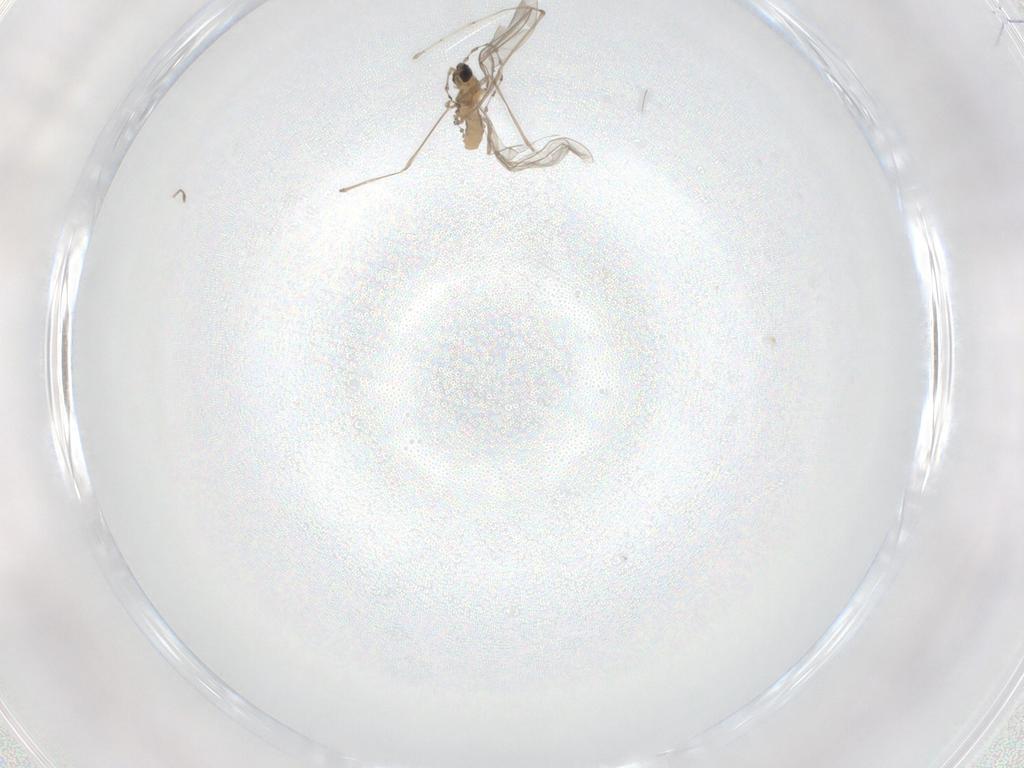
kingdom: Animalia
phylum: Arthropoda
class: Insecta
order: Diptera
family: Cecidomyiidae
